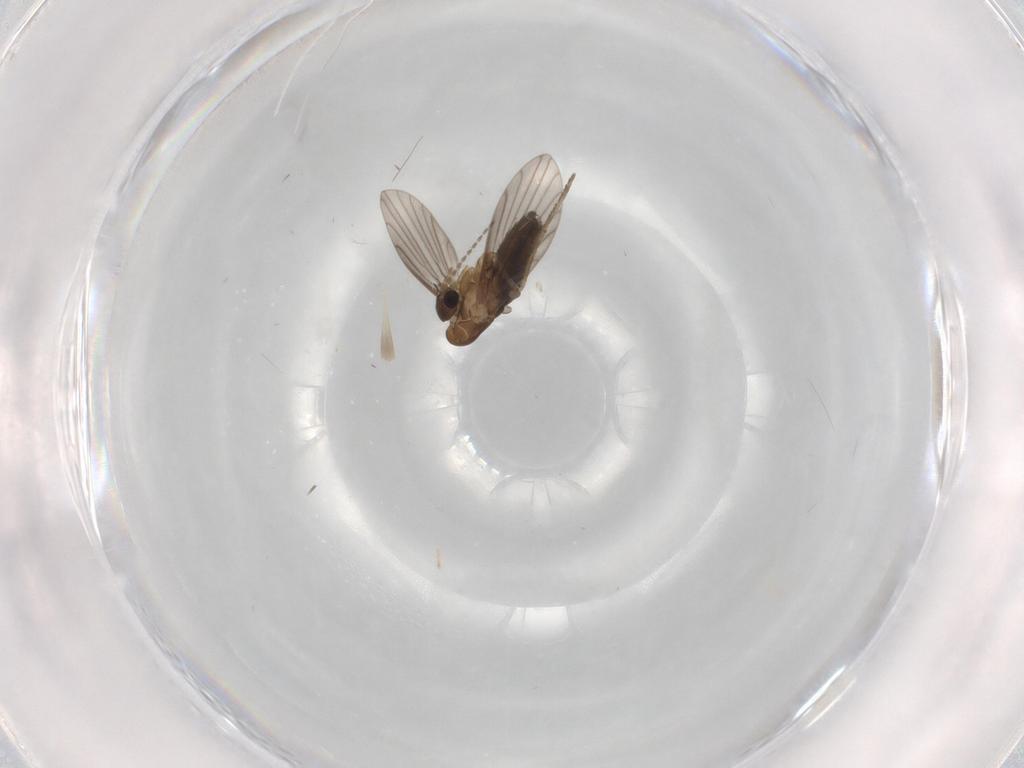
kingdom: Animalia
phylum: Arthropoda
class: Insecta
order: Diptera
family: Psychodidae
